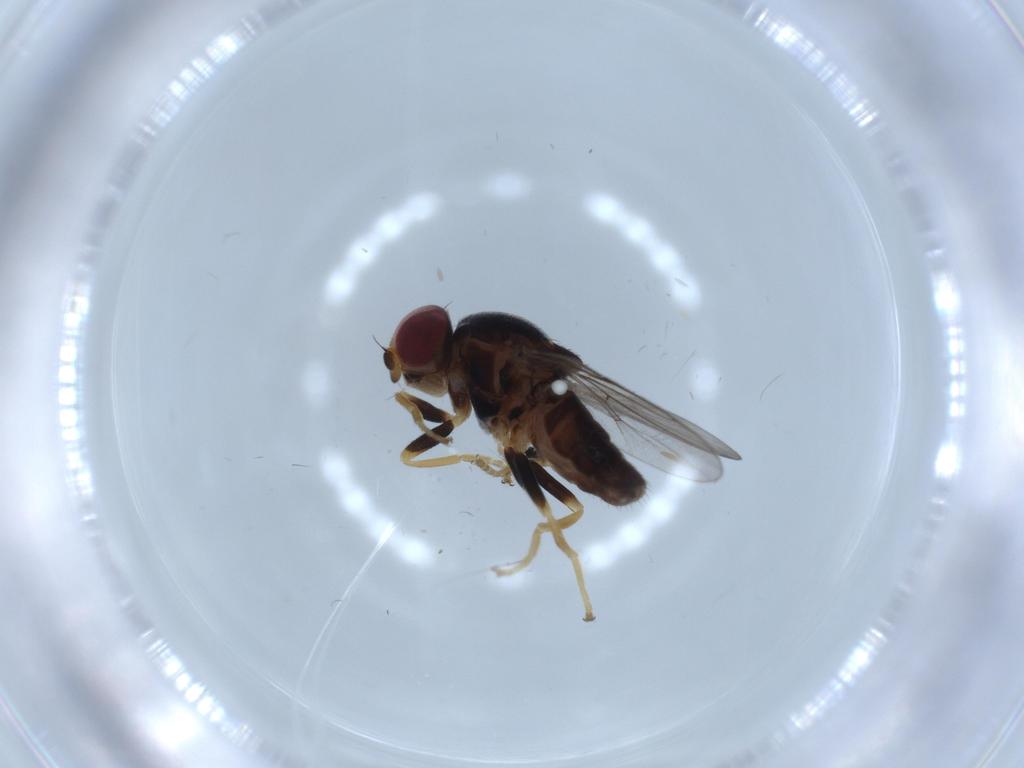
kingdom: Animalia
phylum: Arthropoda
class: Insecta
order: Diptera
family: Chloropidae
